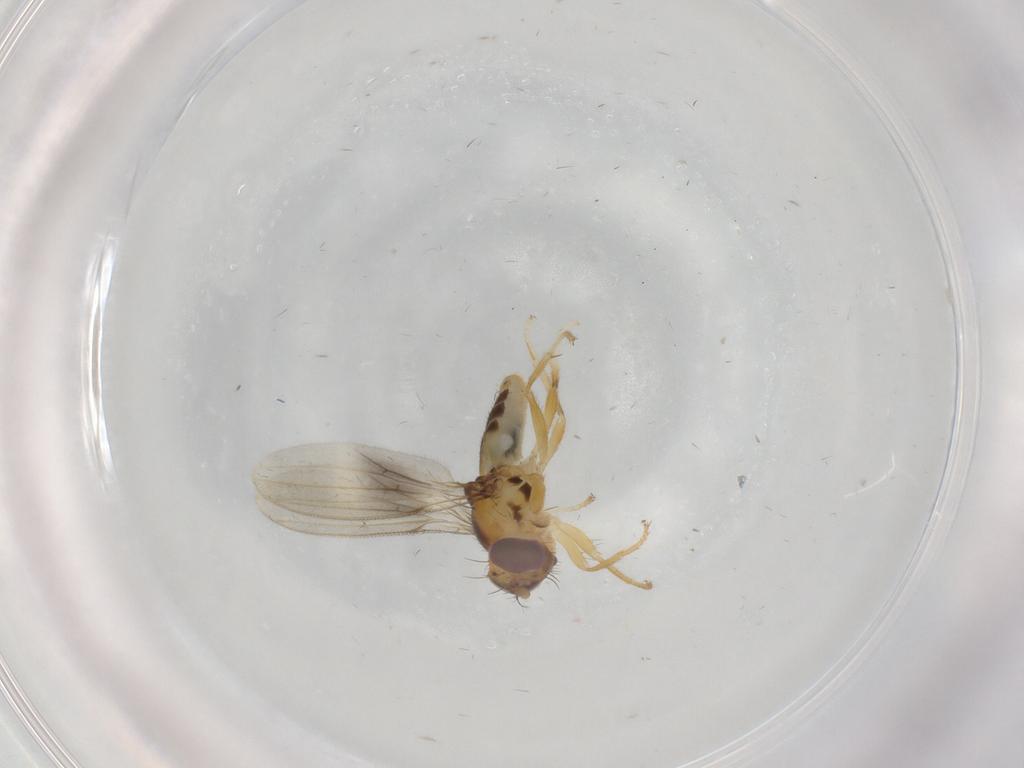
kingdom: Animalia
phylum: Arthropoda
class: Insecta
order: Diptera
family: Periscelididae
